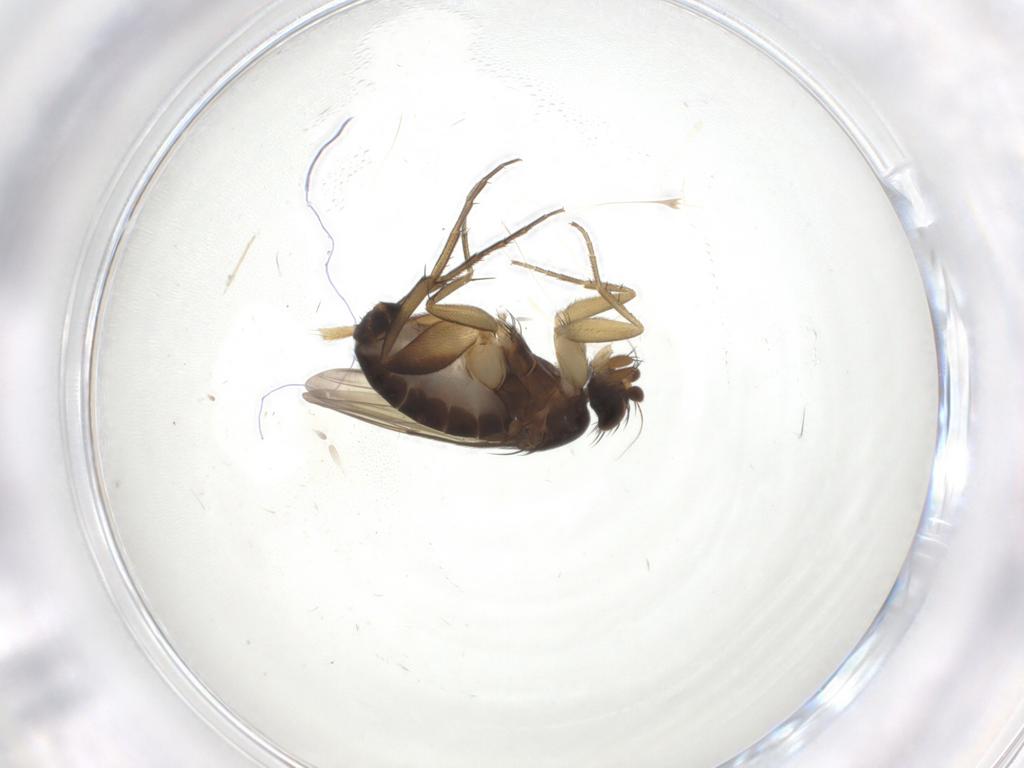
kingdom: Animalia
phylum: Arthropoda
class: Insecta
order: Diptera
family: Phoridae
